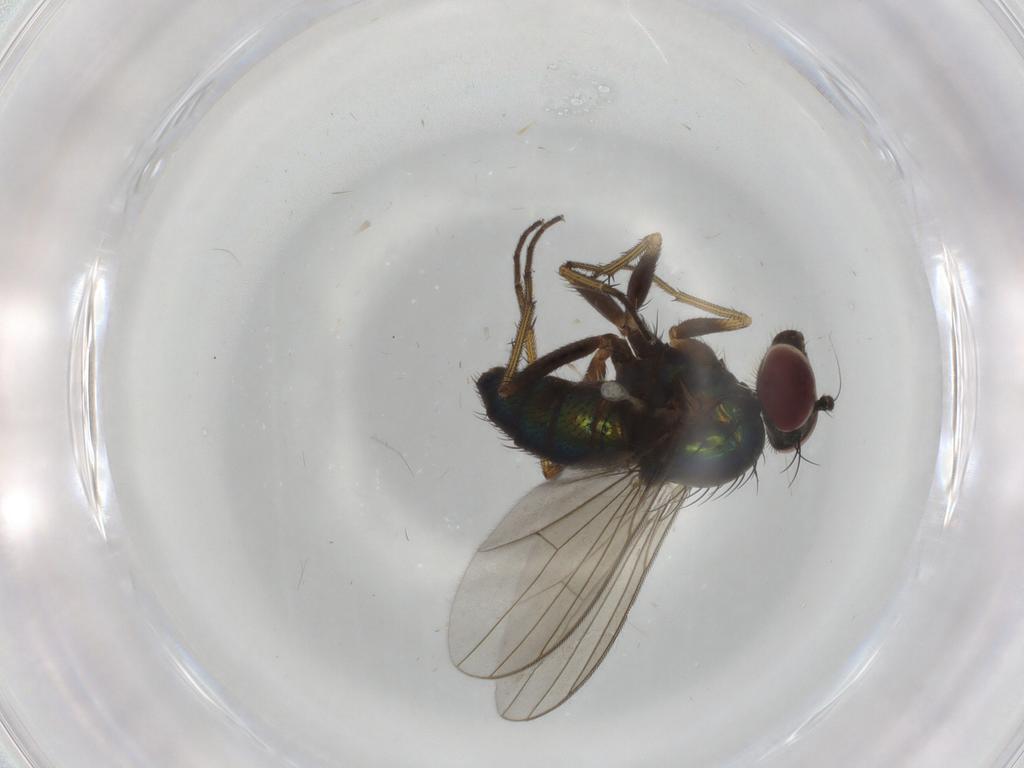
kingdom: Animalia
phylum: Arthropoda
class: Insecta
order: Diptera
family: Dolichopodidae
